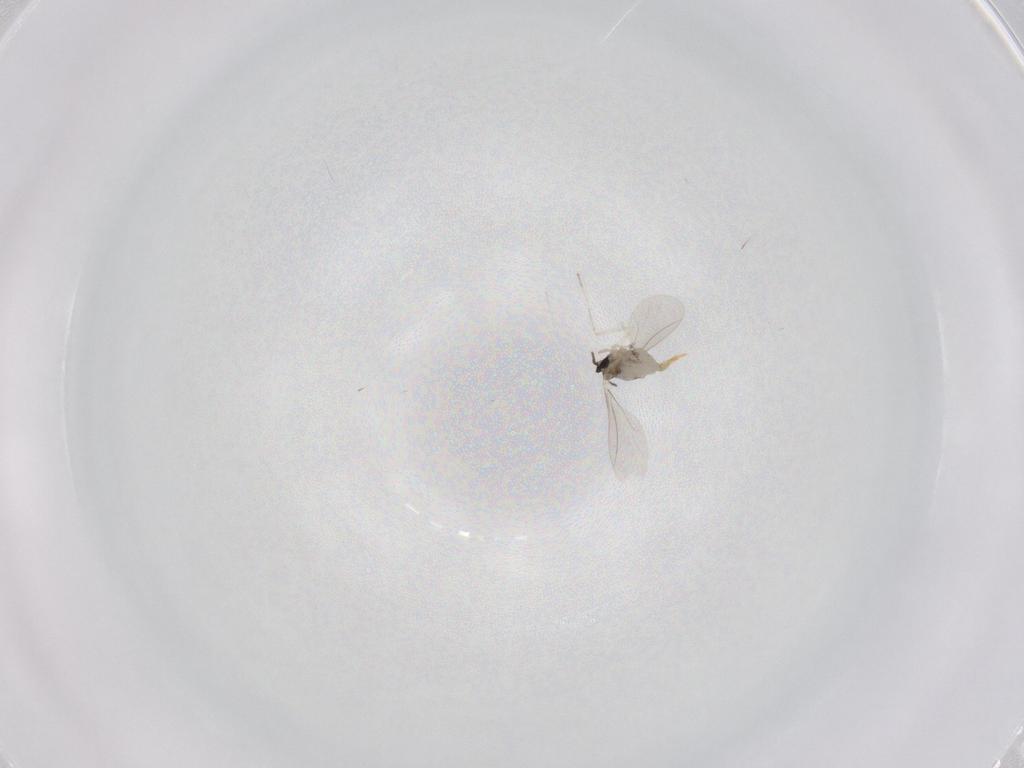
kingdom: Animalia
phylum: Arthropoda
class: Insecta
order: Diptera
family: Cecidomyiidae
